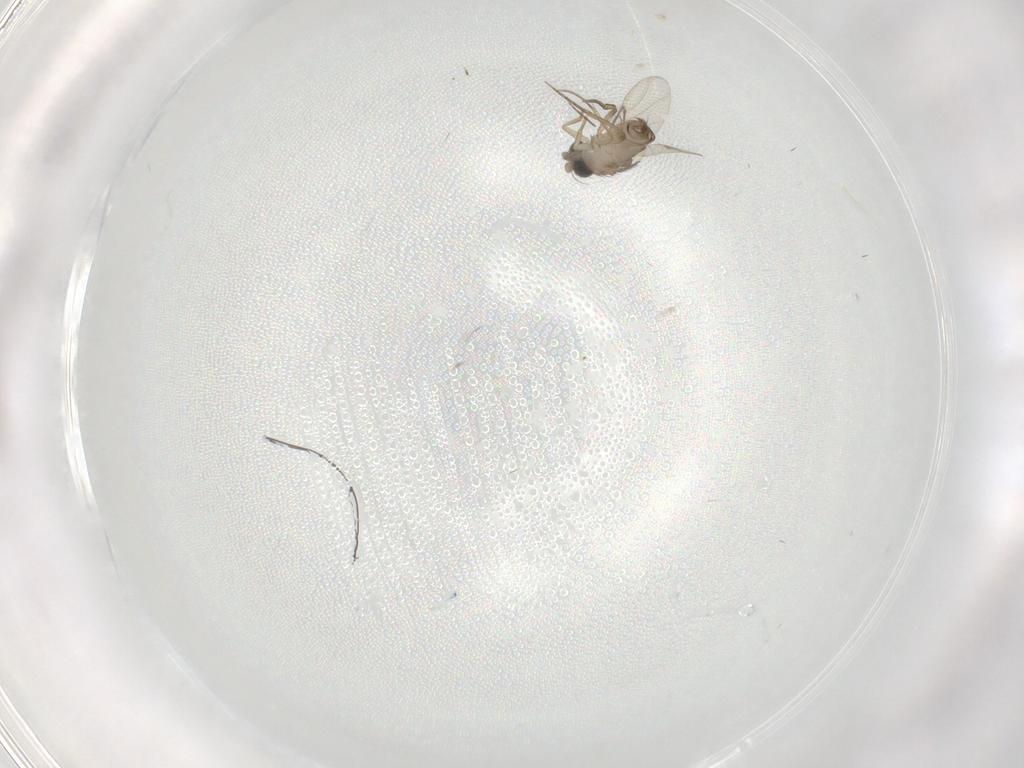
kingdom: Animalia
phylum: Arthropoda
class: Insecta
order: Diptera
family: Phoridae
